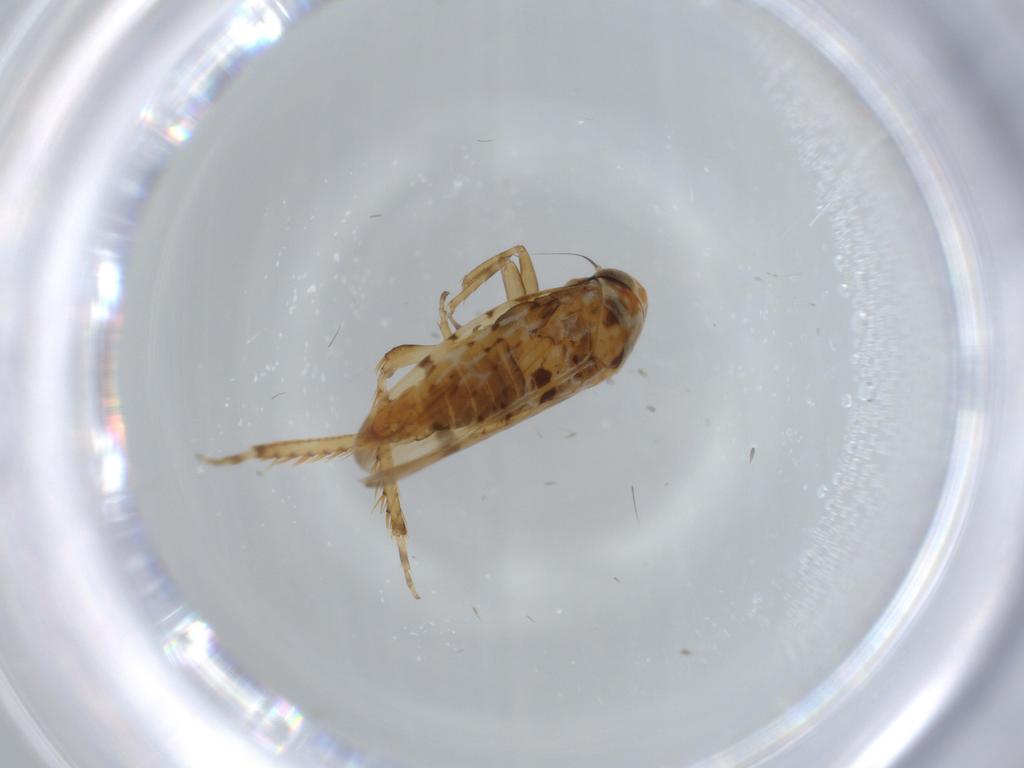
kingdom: Animalia
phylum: Arthropoda
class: Insecta
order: Hemiptera
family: Cicadellidae
